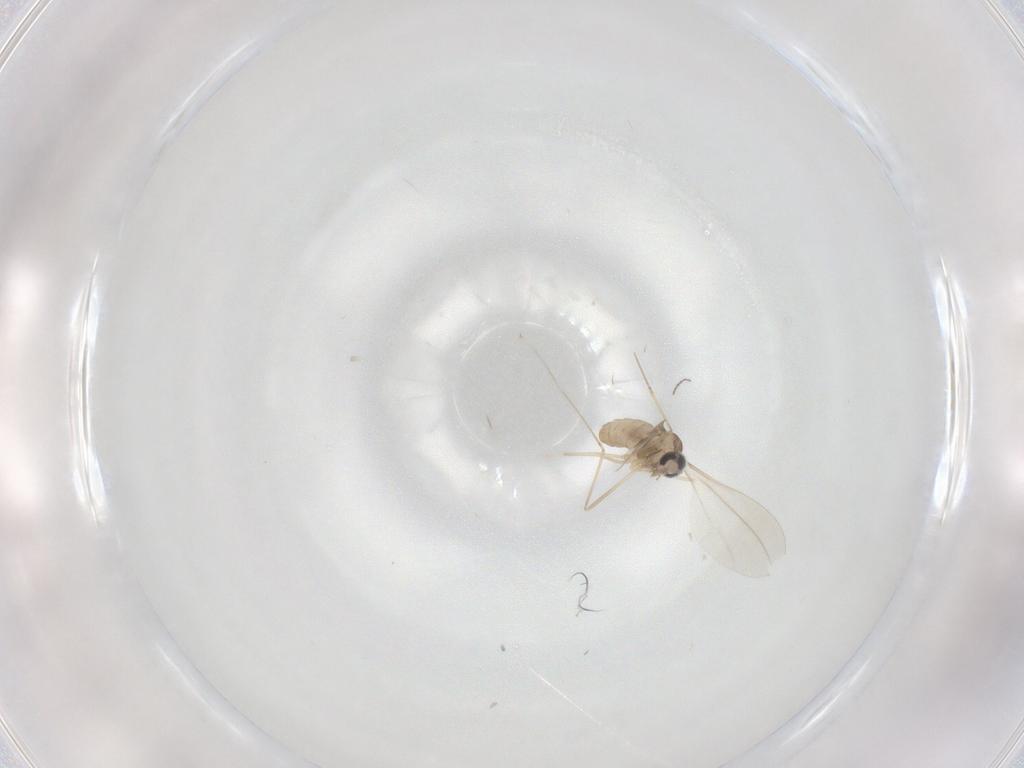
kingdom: Animalia
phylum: Arthropoda
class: Insecta
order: Diptera
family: Cecidomyiidae
